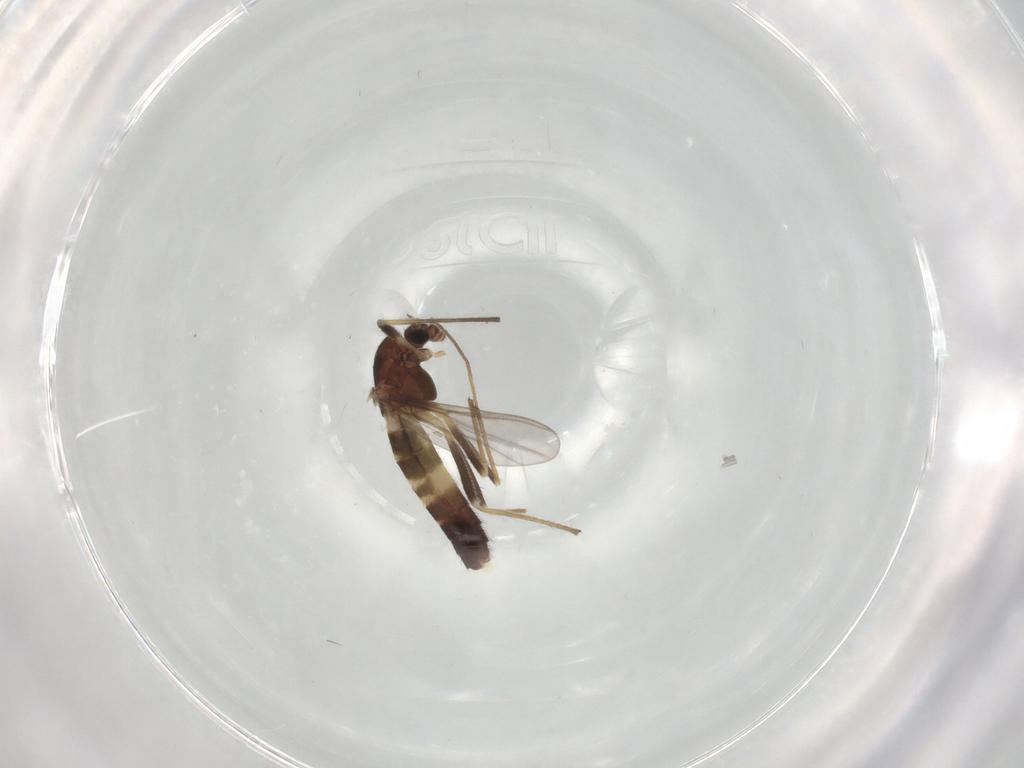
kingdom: Animalia
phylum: Arthropoda
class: Insecta
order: Diptera
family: Chironomidae
